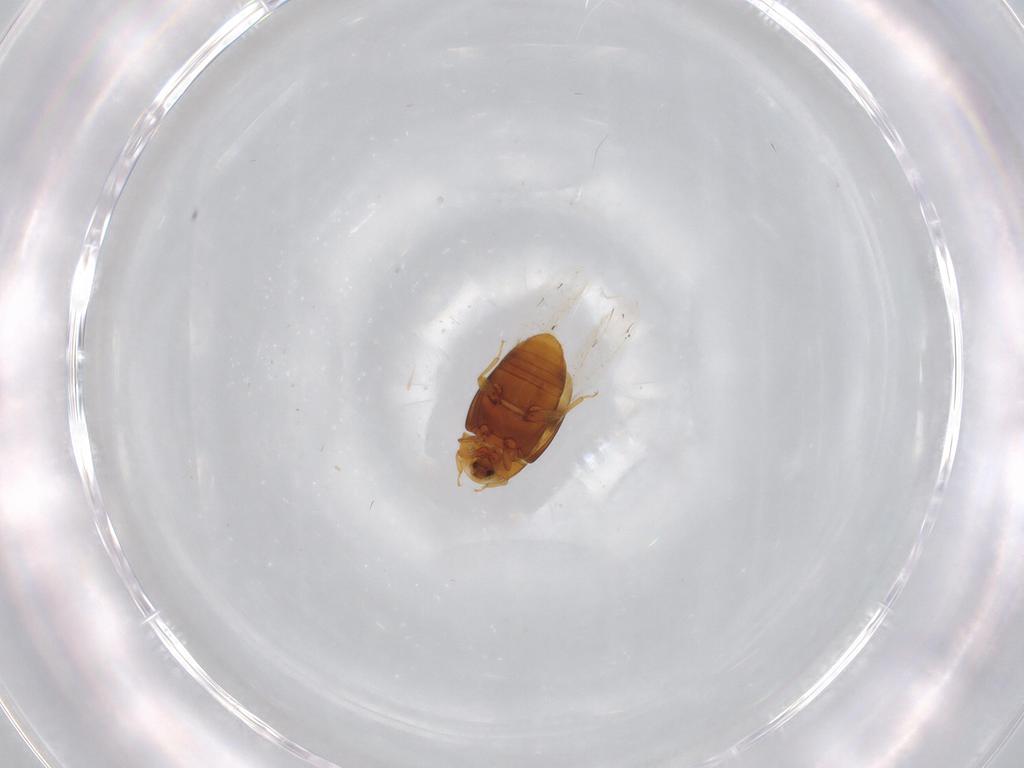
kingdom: Animalia
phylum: Arthropoda
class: Insecta
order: Coleoptera
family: Corylophidae
